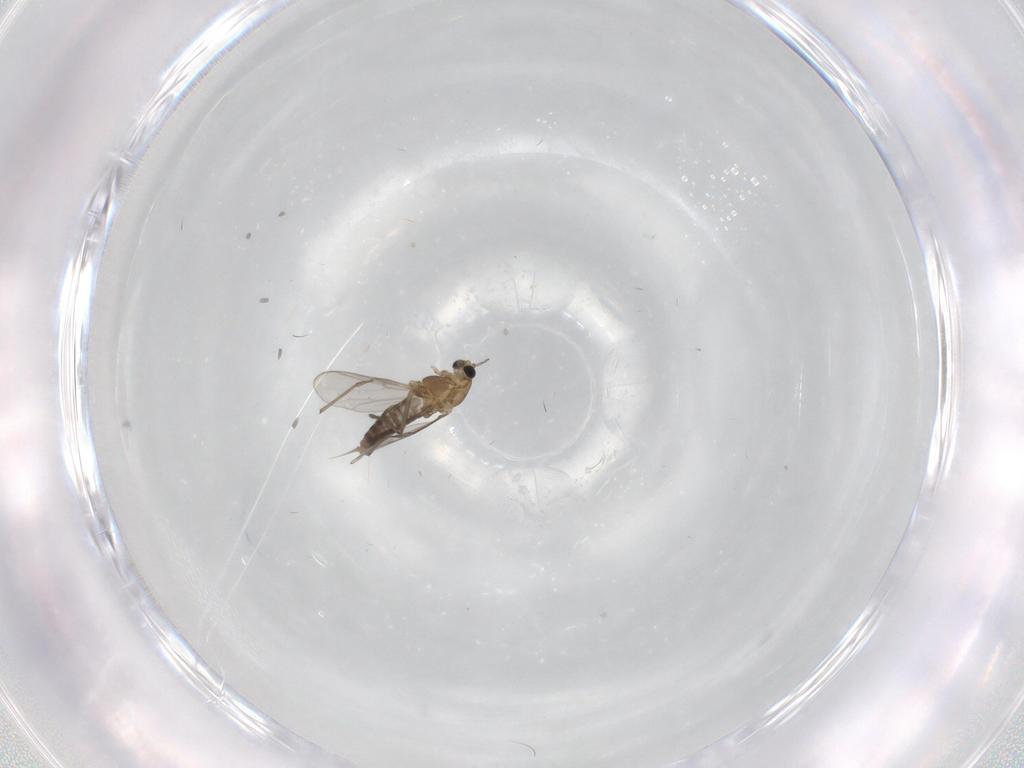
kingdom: Animalia
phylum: Arthropoda
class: Insecta
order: Diptera
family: Chironomidae
